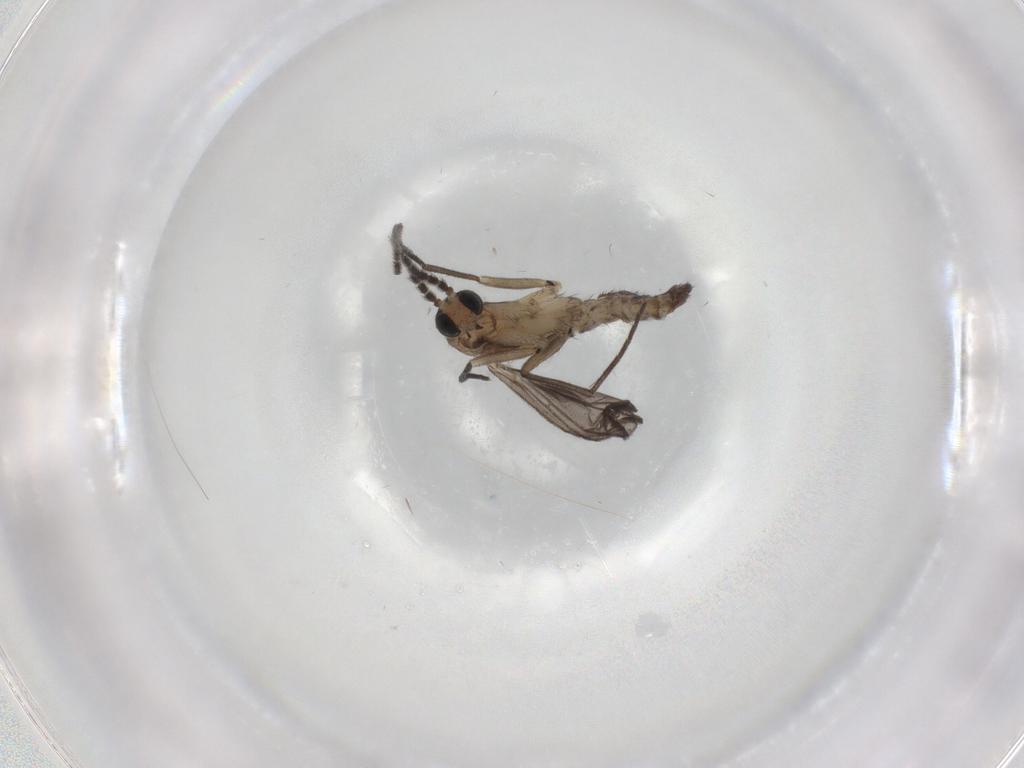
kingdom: Animalia
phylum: Arthropoda
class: Insecta
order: Diptera
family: Sciaridae
